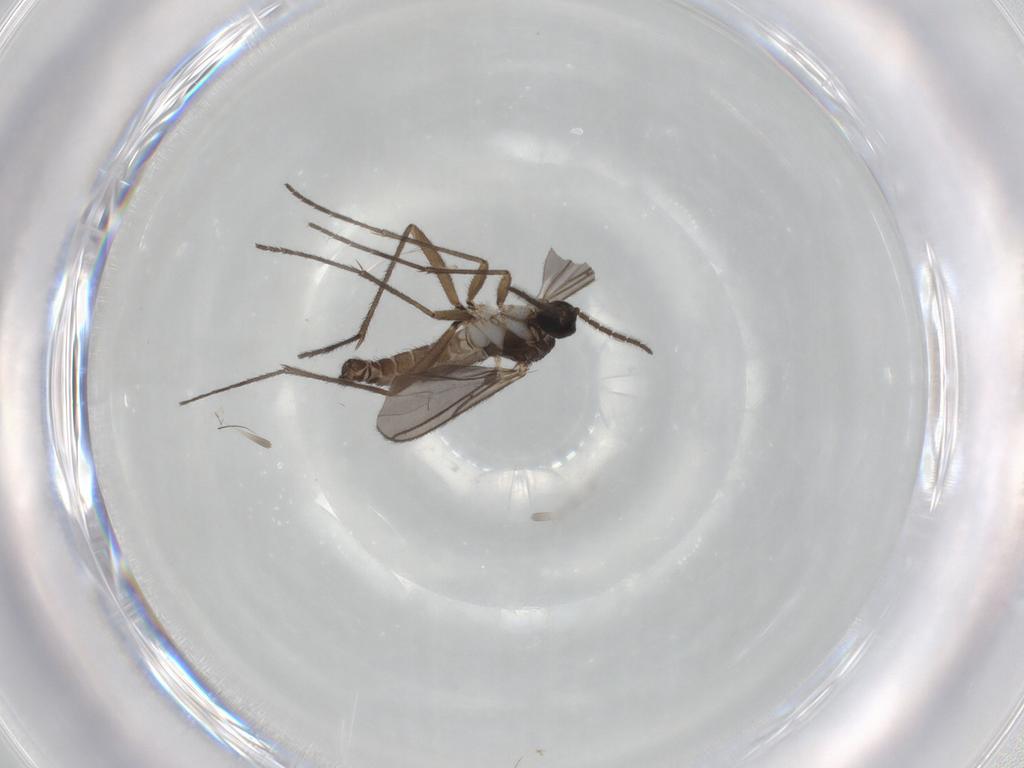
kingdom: Animalia
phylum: Arthropoda
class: Insecta
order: Diptera
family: Sciaridae
